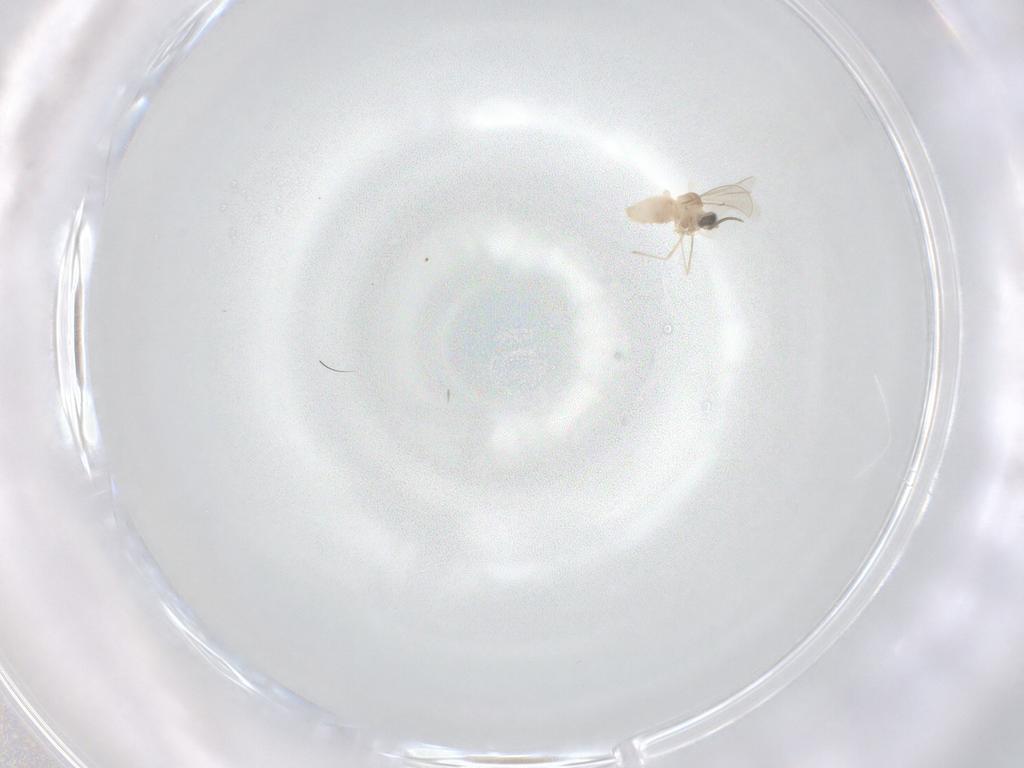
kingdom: Animalia
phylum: Arthropoda
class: Insecta
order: Diptera
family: Cecidomyiidae
